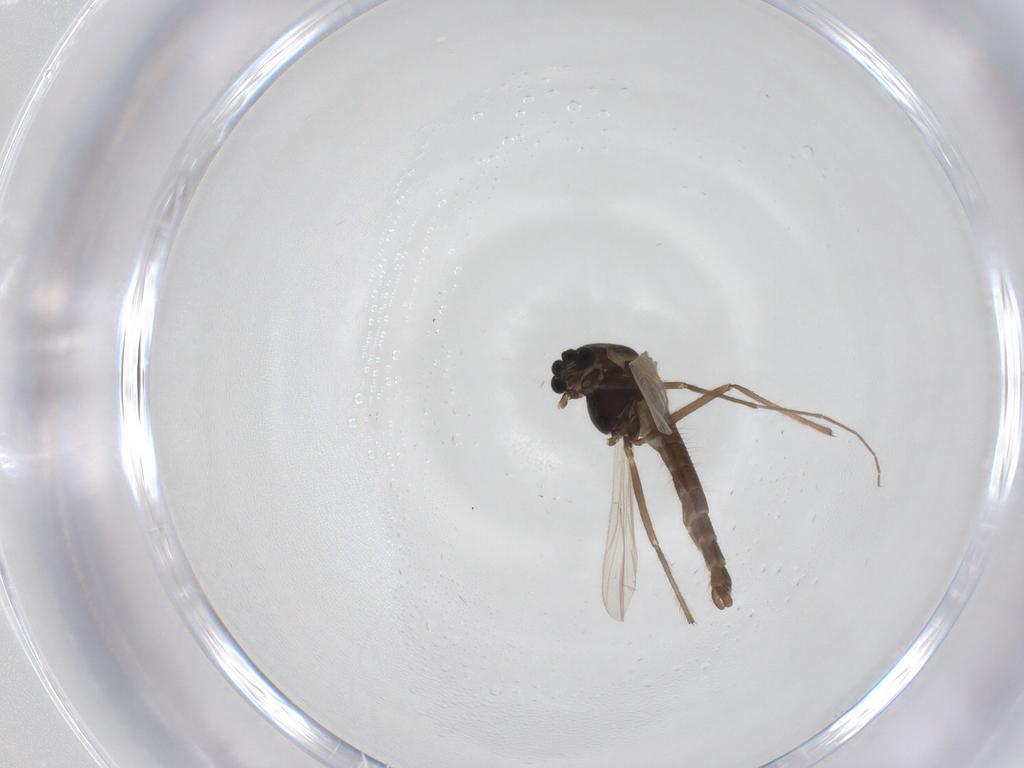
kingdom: Animalia
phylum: Arthropoda
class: Insecta
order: Diptera
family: Chironomidae
